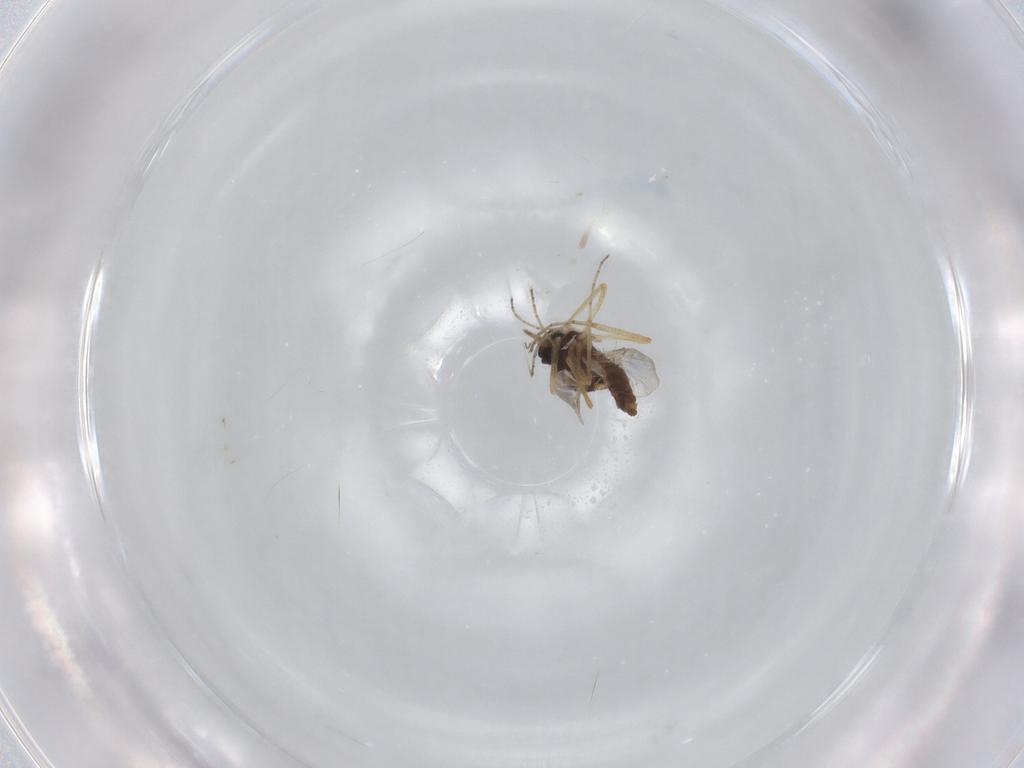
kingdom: Animalia
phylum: Arthropoda
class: Insecta
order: Diptera
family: Ceratopogonidae
